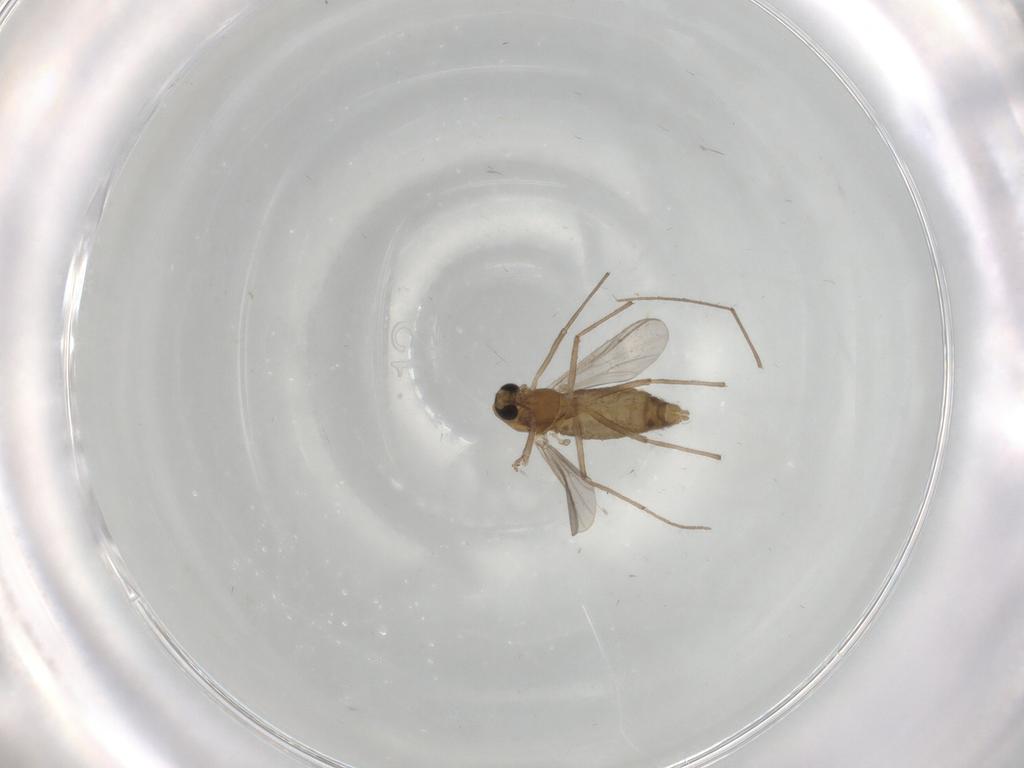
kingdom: Animalia
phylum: Arthropoda
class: Insecta
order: Diptera
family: Chironomidae
